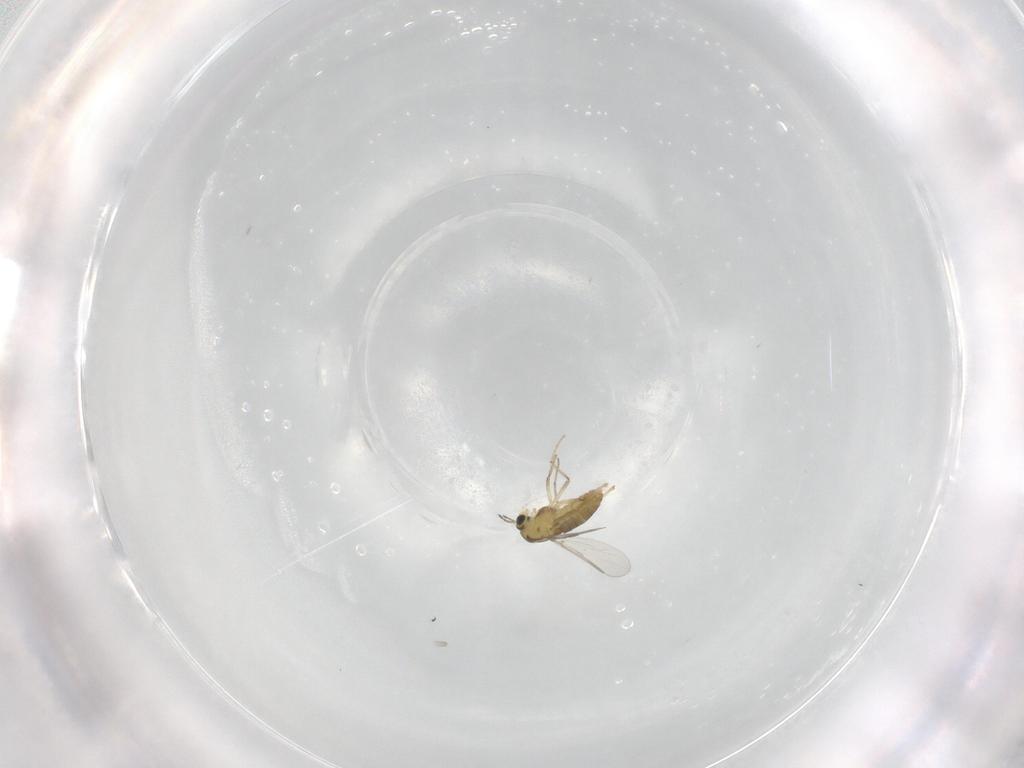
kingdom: Animalia
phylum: Arthropoda
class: Insecta
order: Diptera
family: Chironomidae
